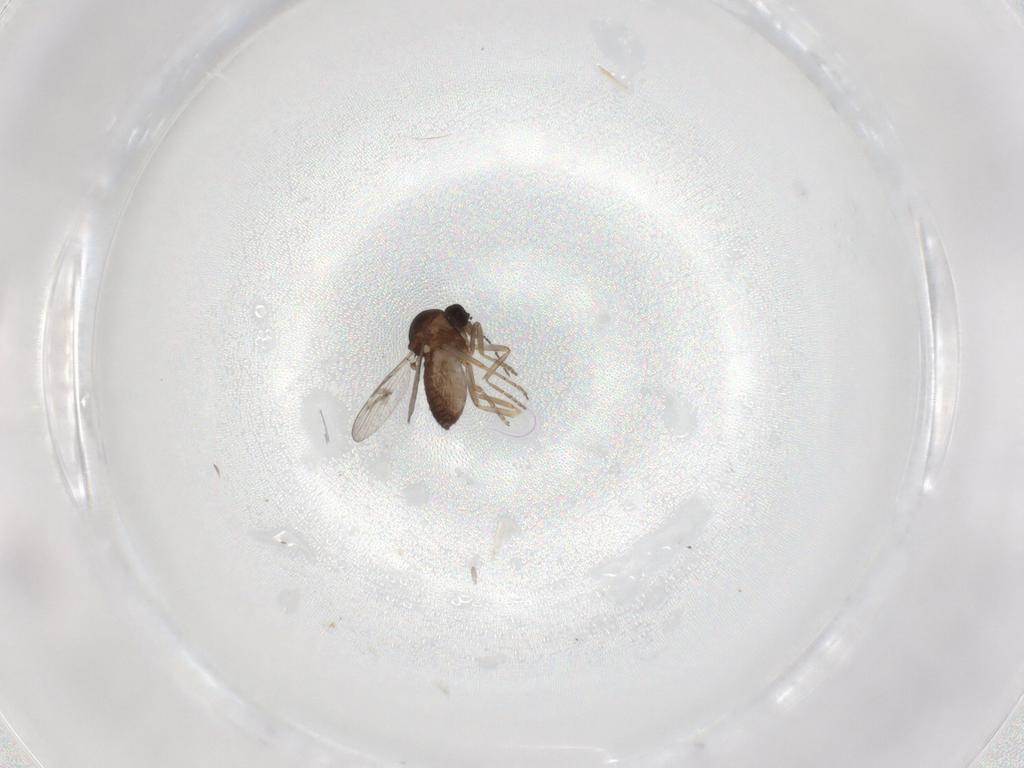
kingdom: Animalia
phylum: Arthropoda
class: Insecta
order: Diptera
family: Ceratopogonidae
